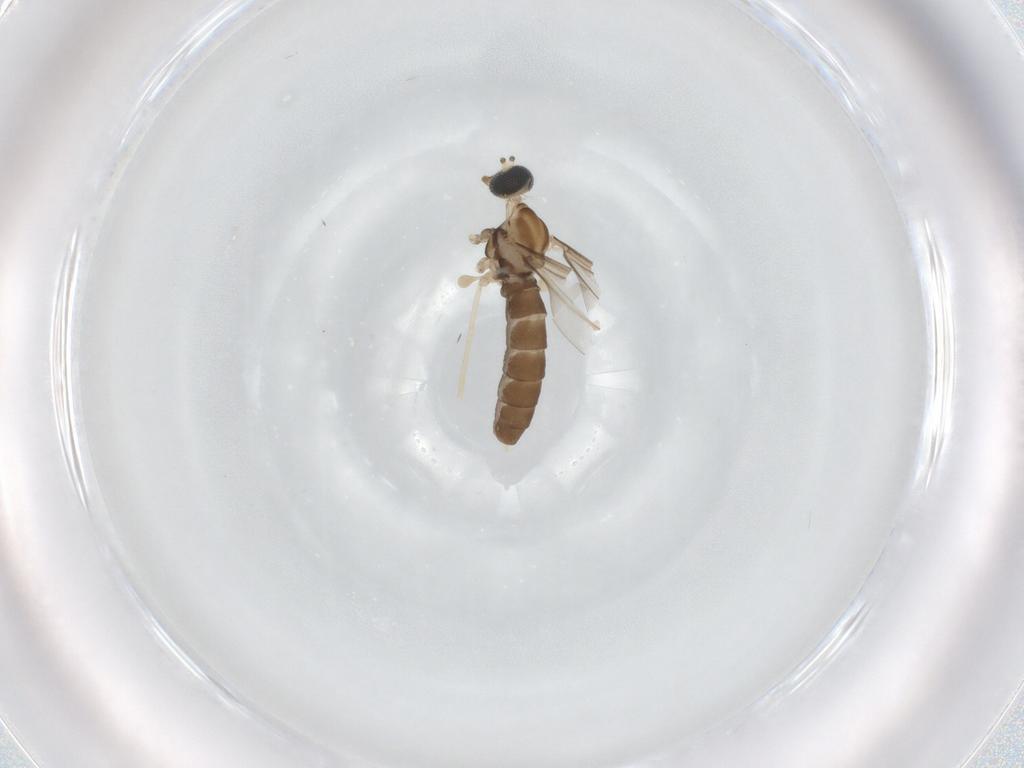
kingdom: Animalia
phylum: Arthropoda
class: Insecta
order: Diptera
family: Cecidomyiidae
